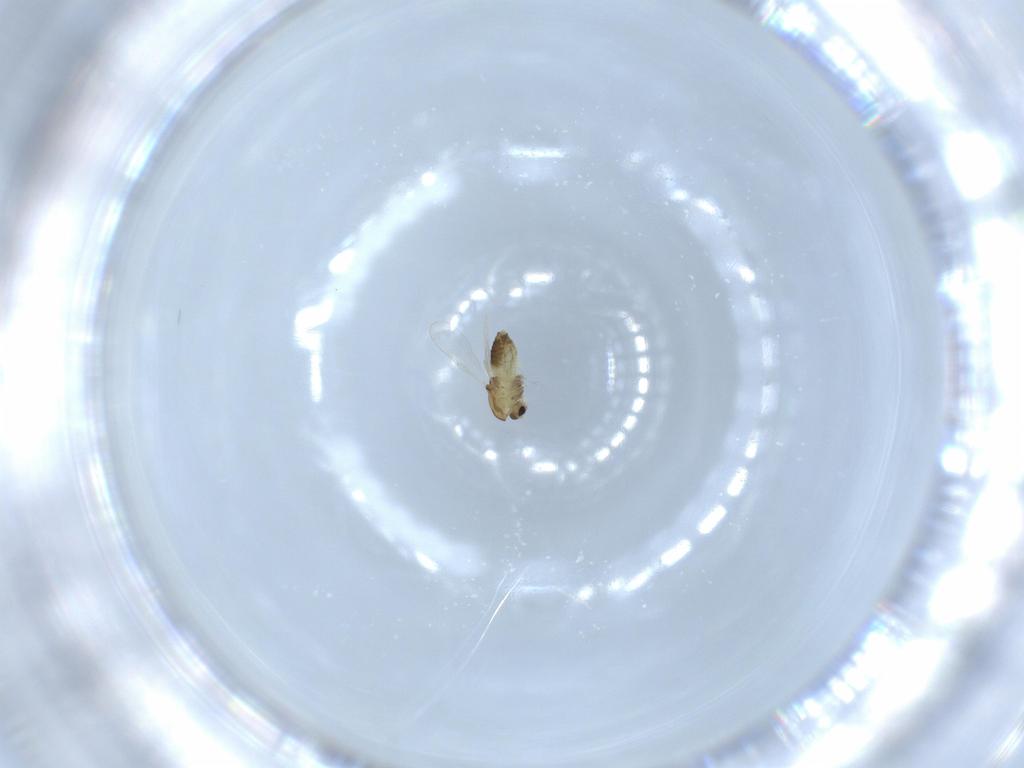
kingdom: Animalia
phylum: Arthropoda
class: Insecta
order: Diptera
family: Chironomidae
